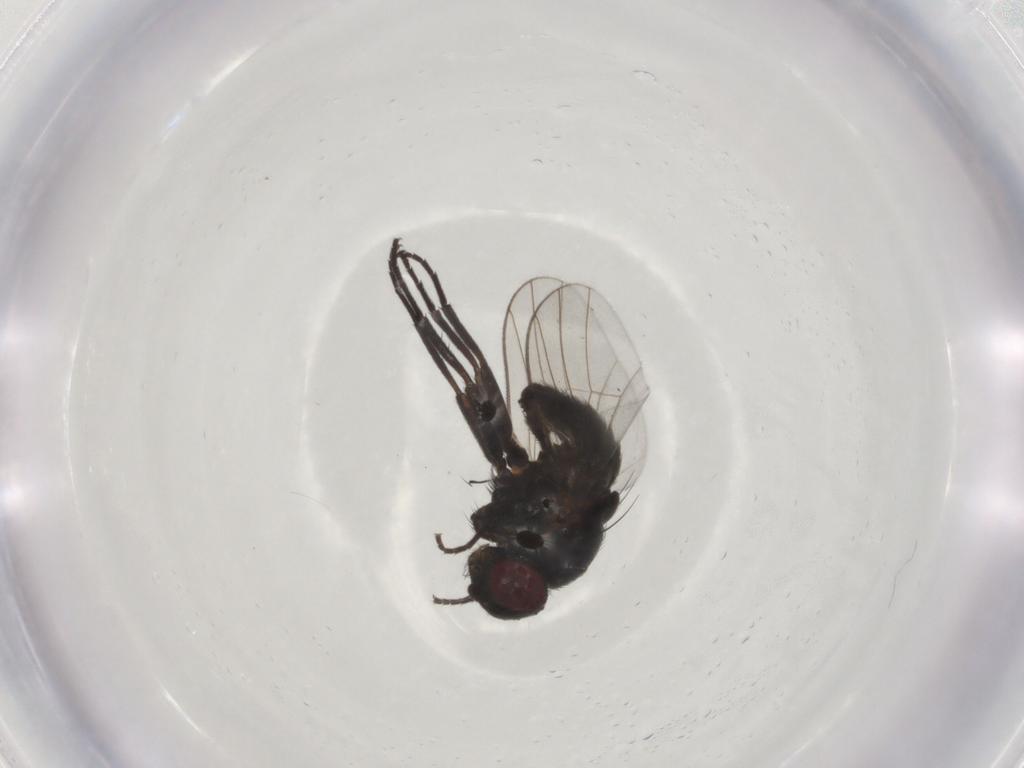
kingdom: Animalia
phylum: Arthropoda
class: Insecta
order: Diptera
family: Agromyzidae
